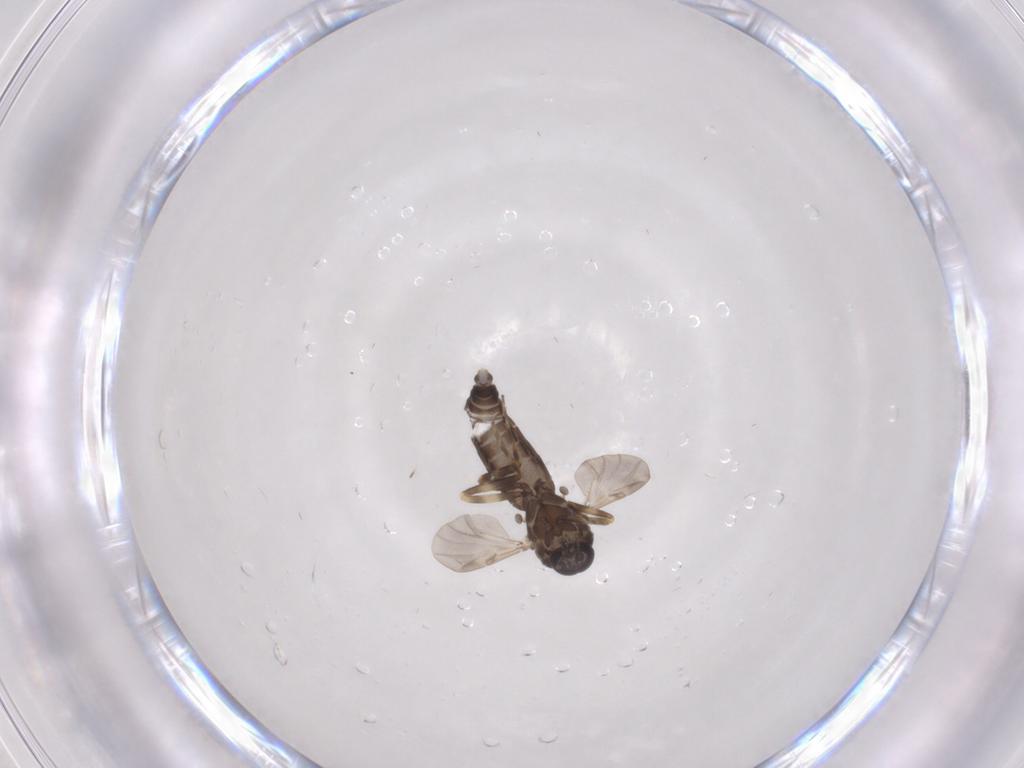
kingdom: Animalia
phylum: Arthropoda
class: Insecta
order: Diptera
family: Ceratopogonidae
